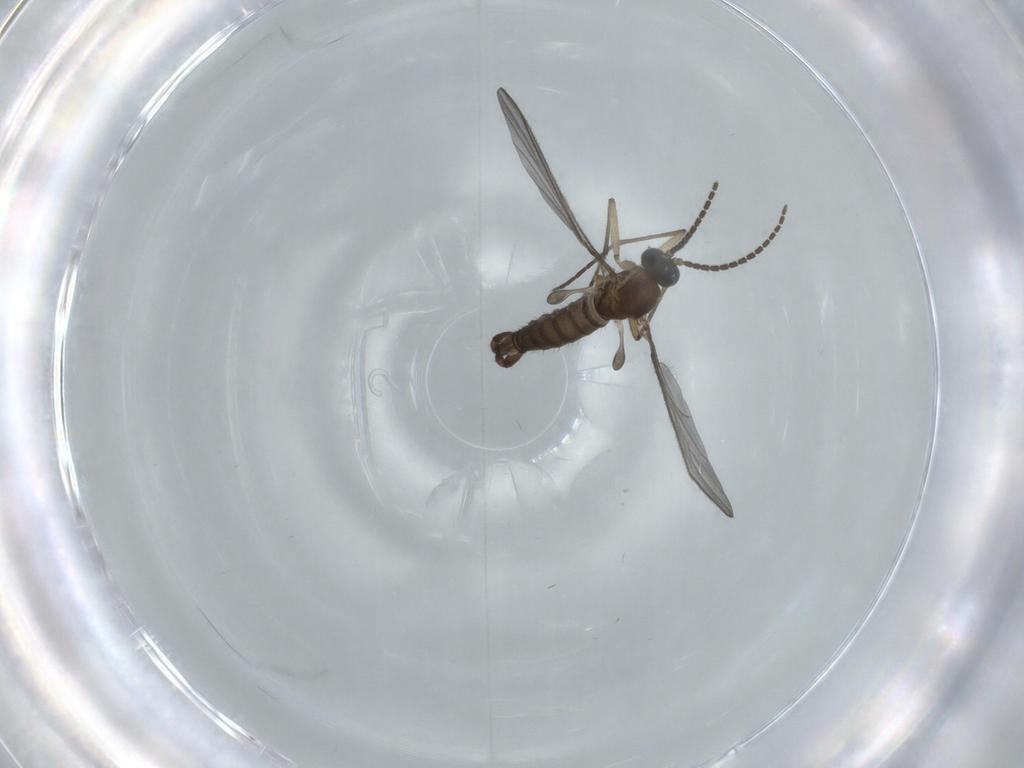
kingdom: Animalia
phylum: Arthropoda
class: Insecta
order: Diptera
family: Sciaridae
